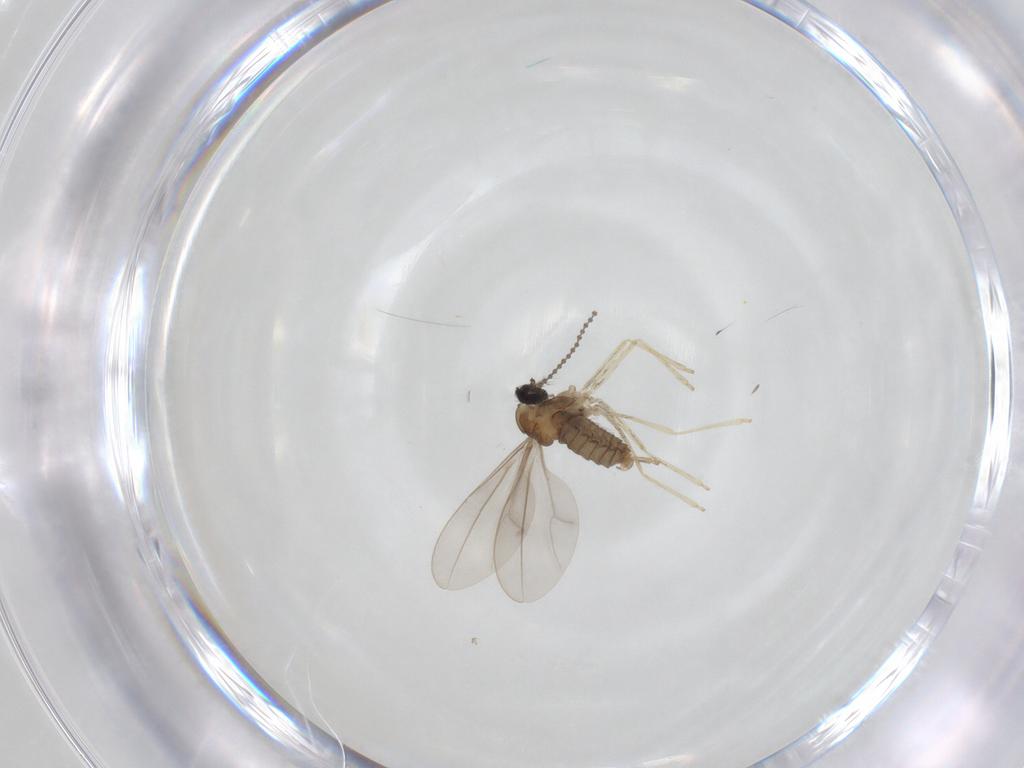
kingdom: Animalia
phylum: Arthropoda
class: Insecta
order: Diptera
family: Cecidomyiidae
